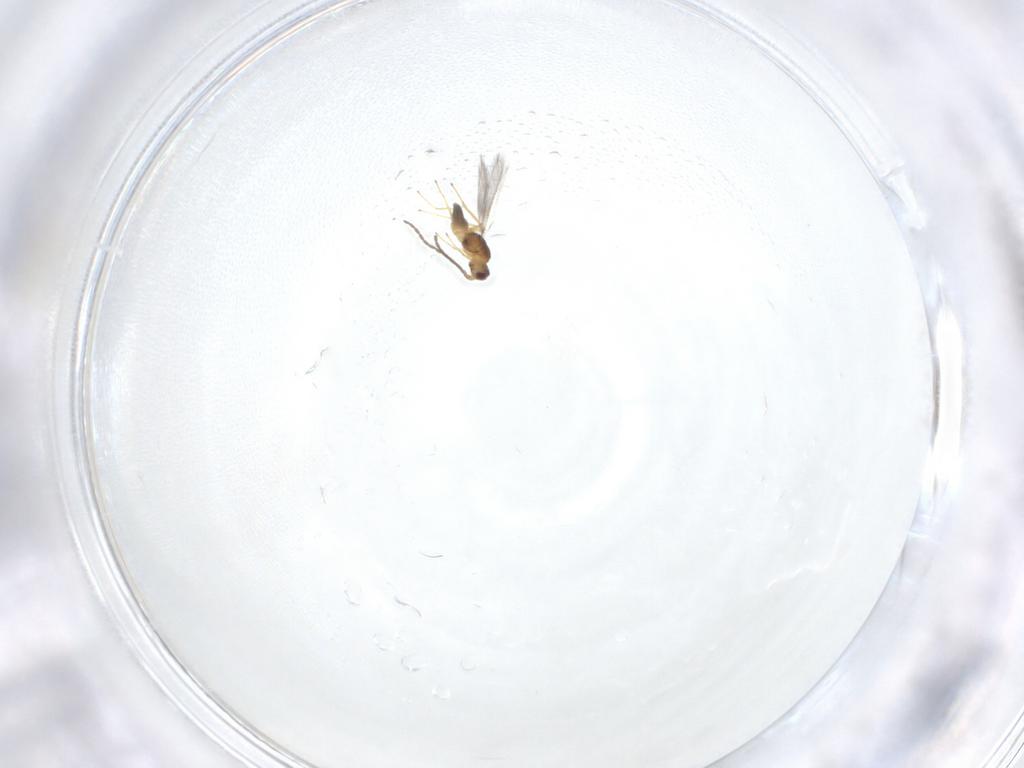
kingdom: Animalia
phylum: Arthropoda
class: Insecta
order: Hymenoptera
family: Mymaridae
